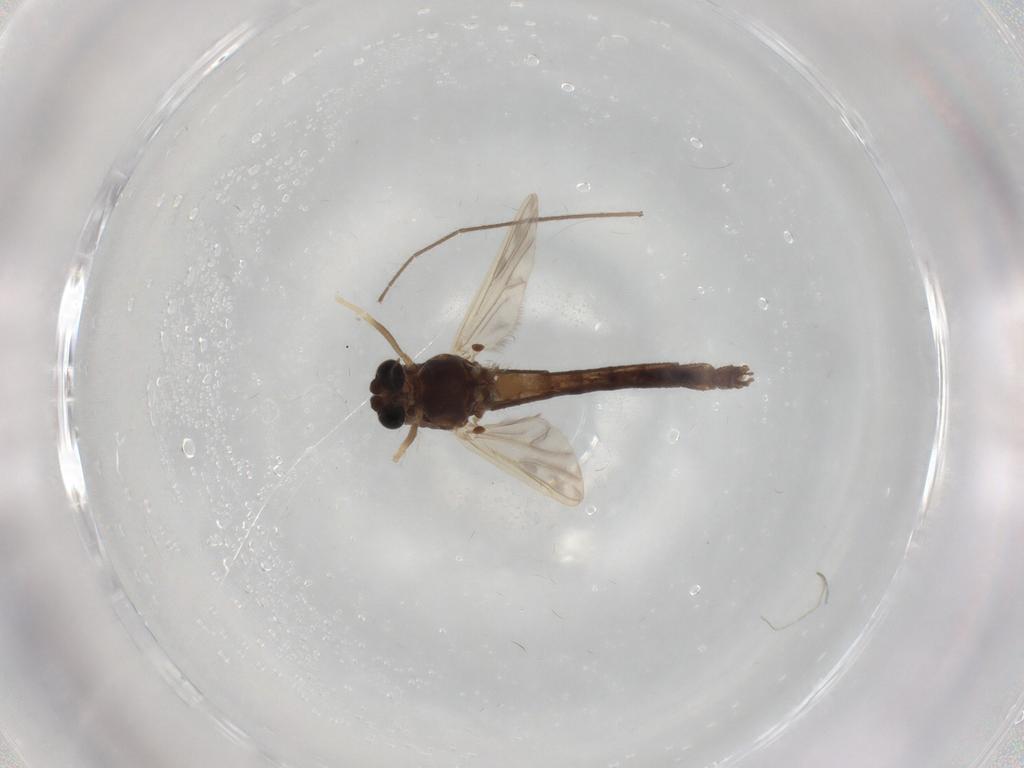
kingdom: Animalia
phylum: Arthropoda
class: Insecta
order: Diptera
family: Chironomidae
